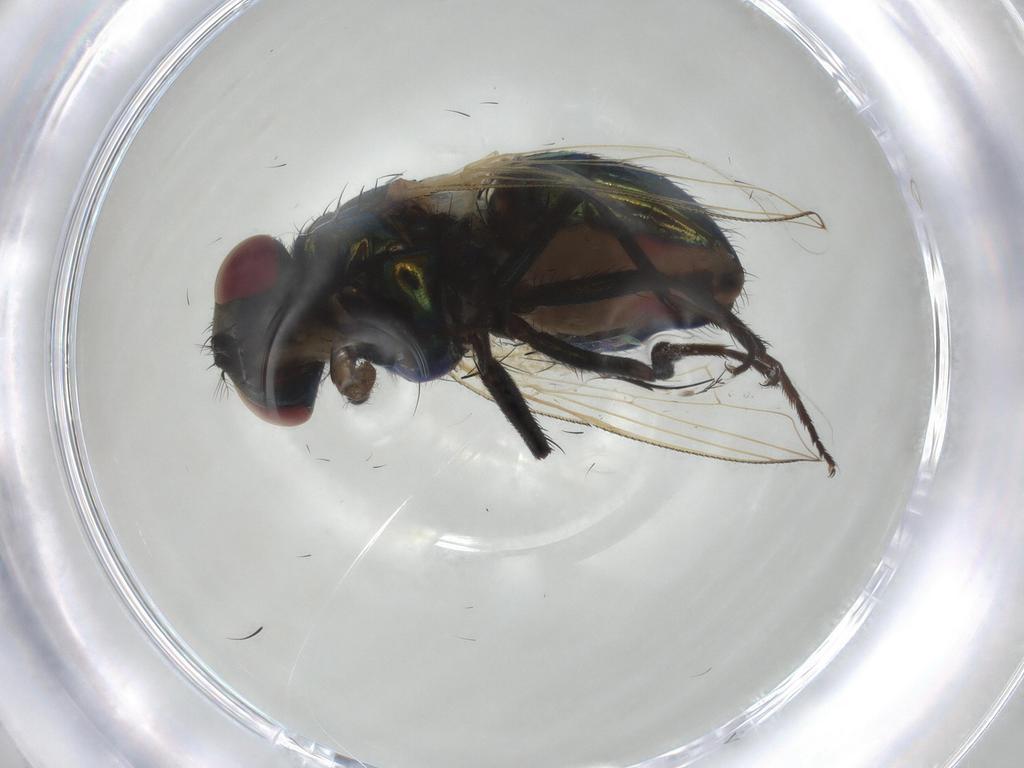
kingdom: Animalia
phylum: Arthropoda
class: Insecta
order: Diptera
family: Muscidae
